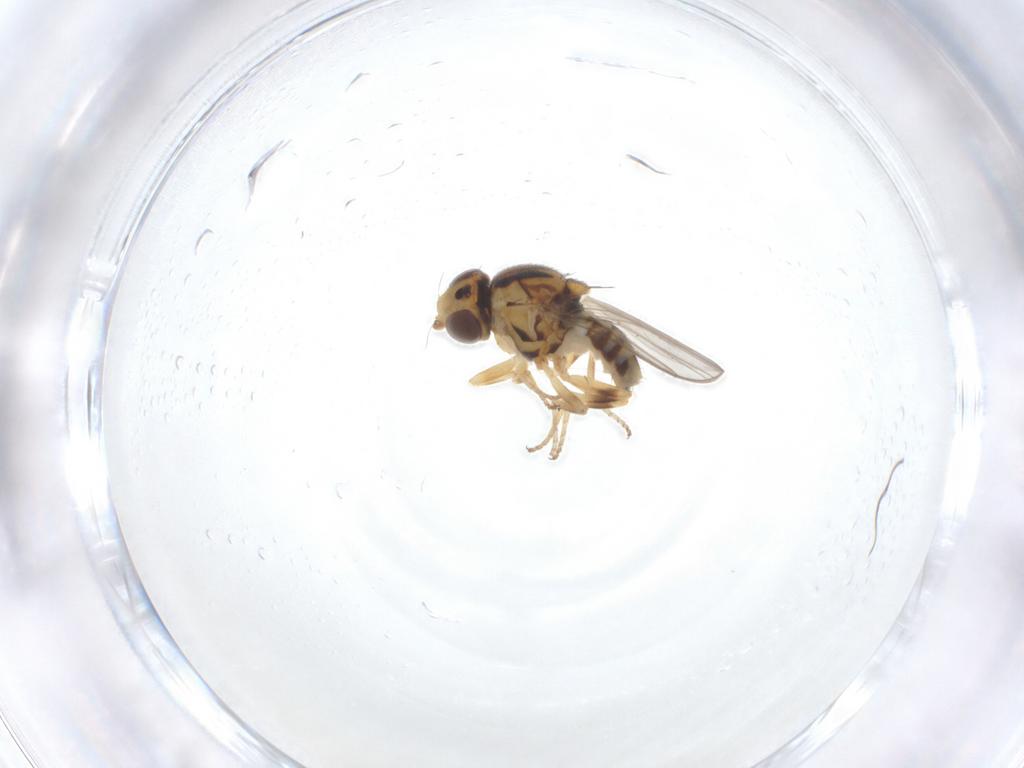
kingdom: Animalia
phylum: Arthropoda
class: Insecta
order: Diptera
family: Chloropidae
